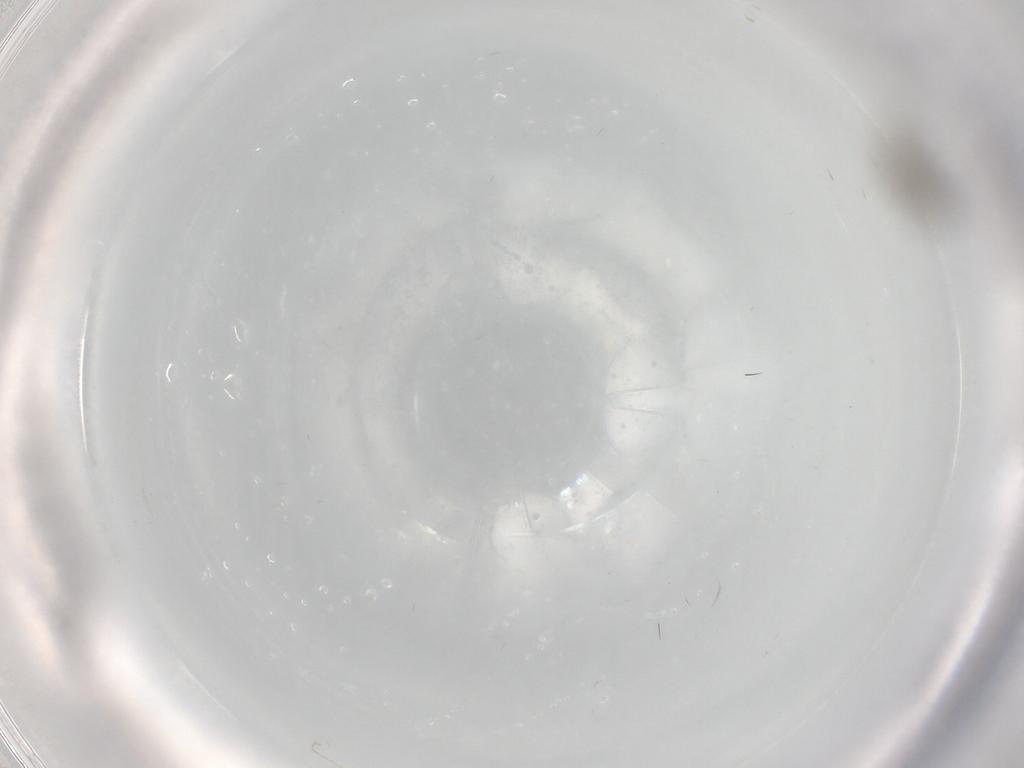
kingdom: Animalia
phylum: Arthropoda
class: Insecta
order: Diptera
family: Cecidomyiidae
